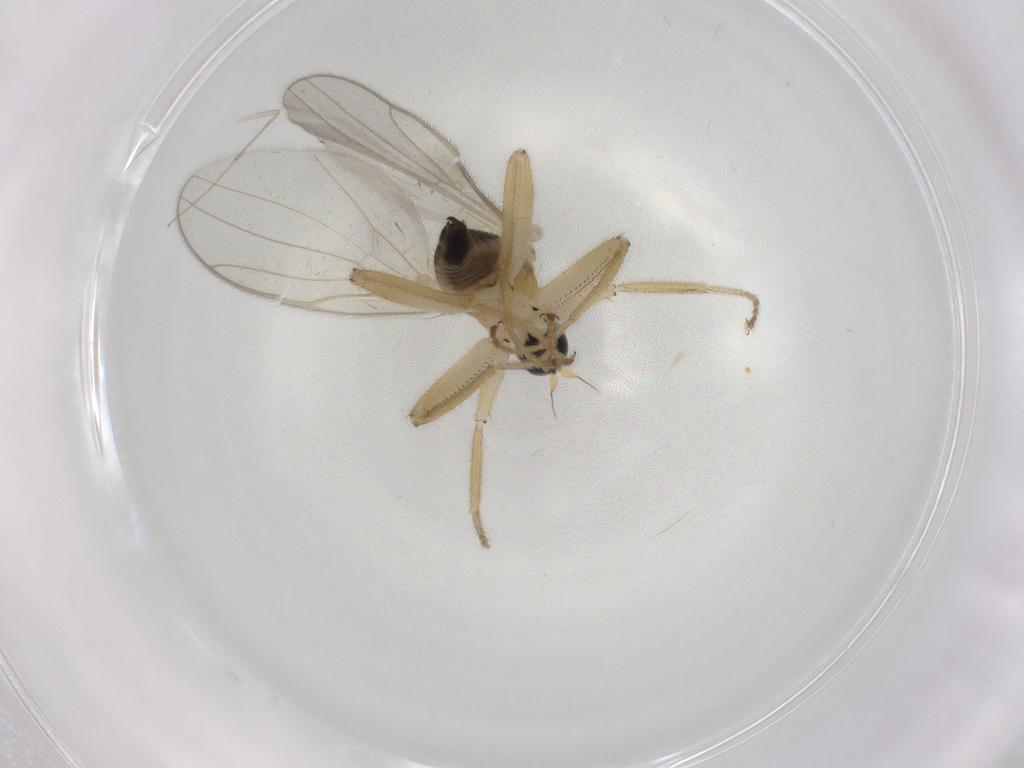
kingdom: Animalia
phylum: Arthropoda
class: Insecta
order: Diptera
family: Hybotidae
